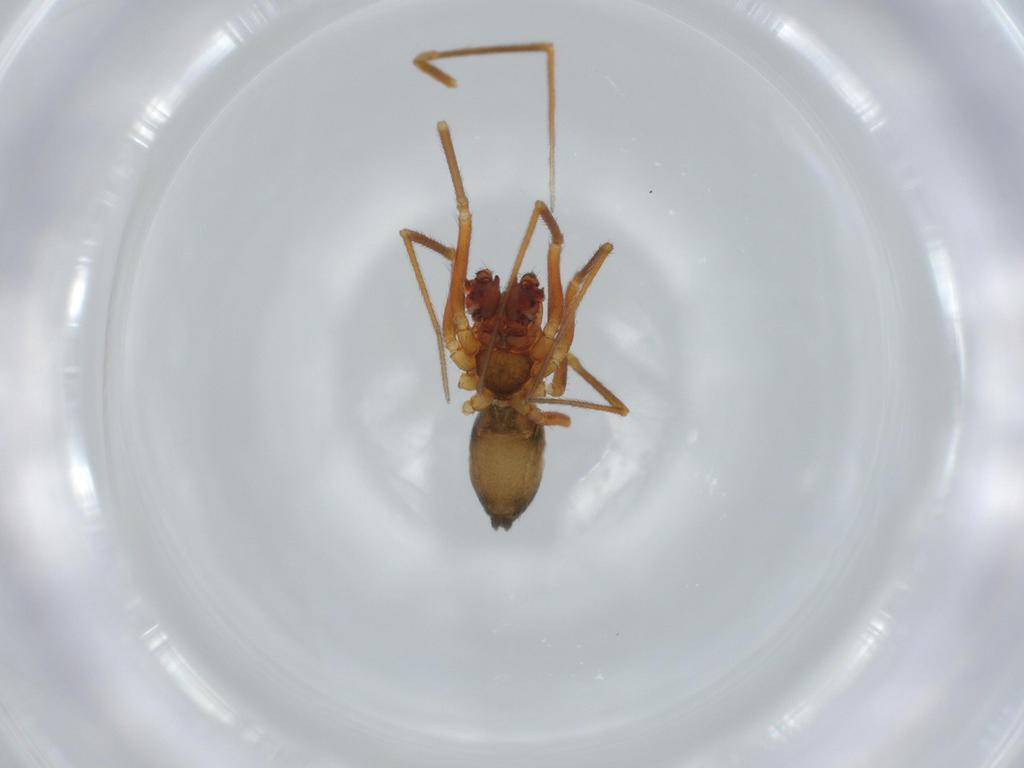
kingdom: Animalia
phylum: Arthropoda
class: Arachnida
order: Araneae
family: Linyphiidae
